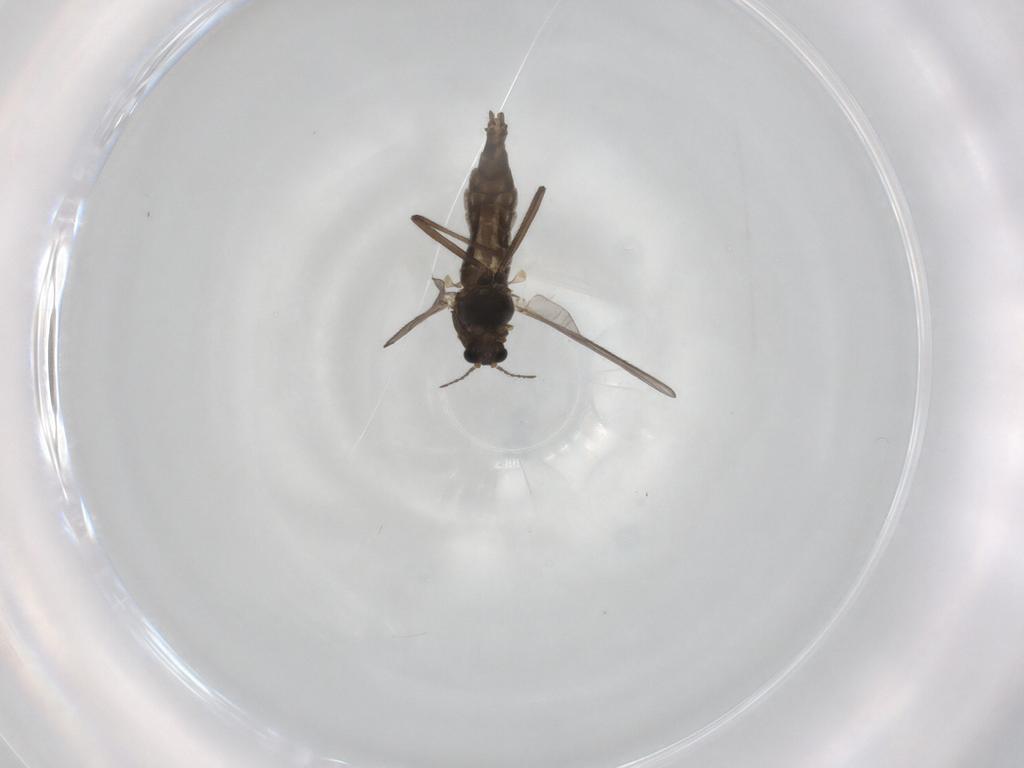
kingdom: Animalia
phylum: Arthropoda
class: Insecta
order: Diptera
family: Chironomidae
